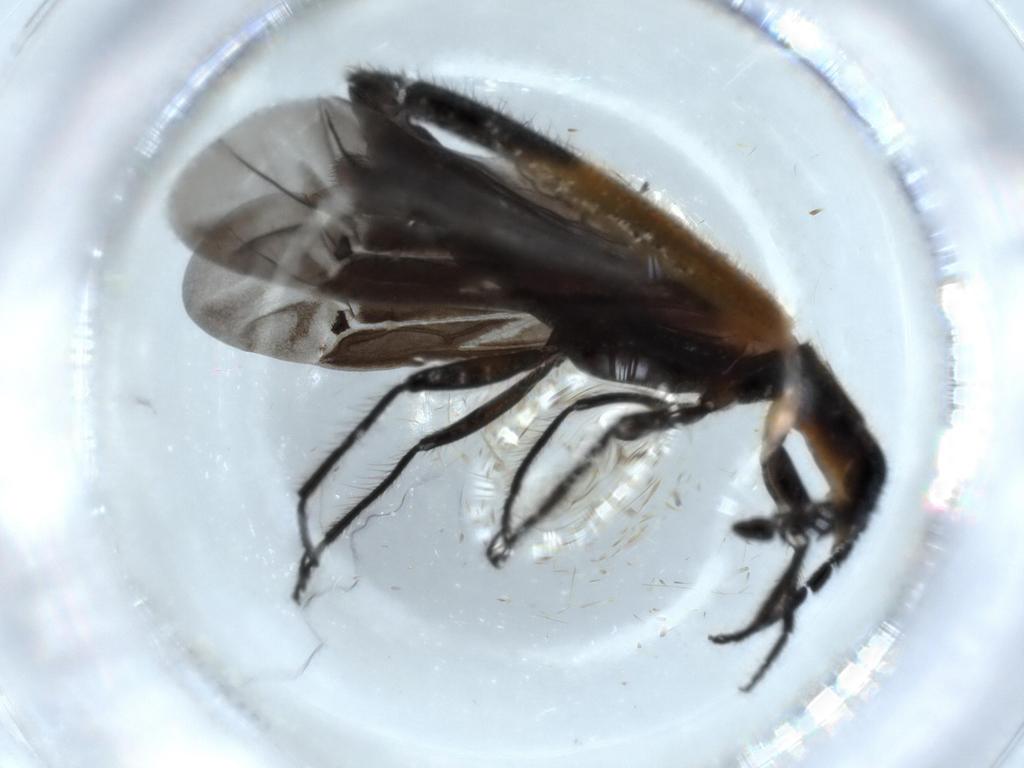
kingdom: Animalia
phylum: Arthropoda
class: Insecta
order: Coleoptera
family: Cleridae
